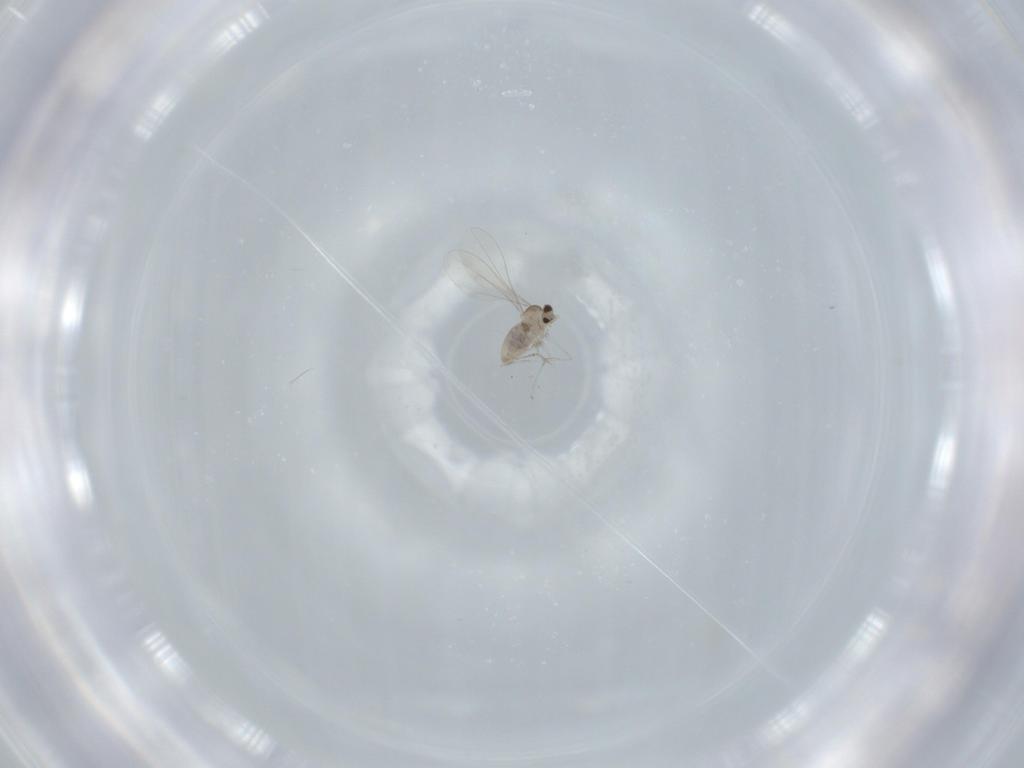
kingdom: Animalia
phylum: Arthropoda
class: Insecta
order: Diptera
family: Cecidomyiidae
